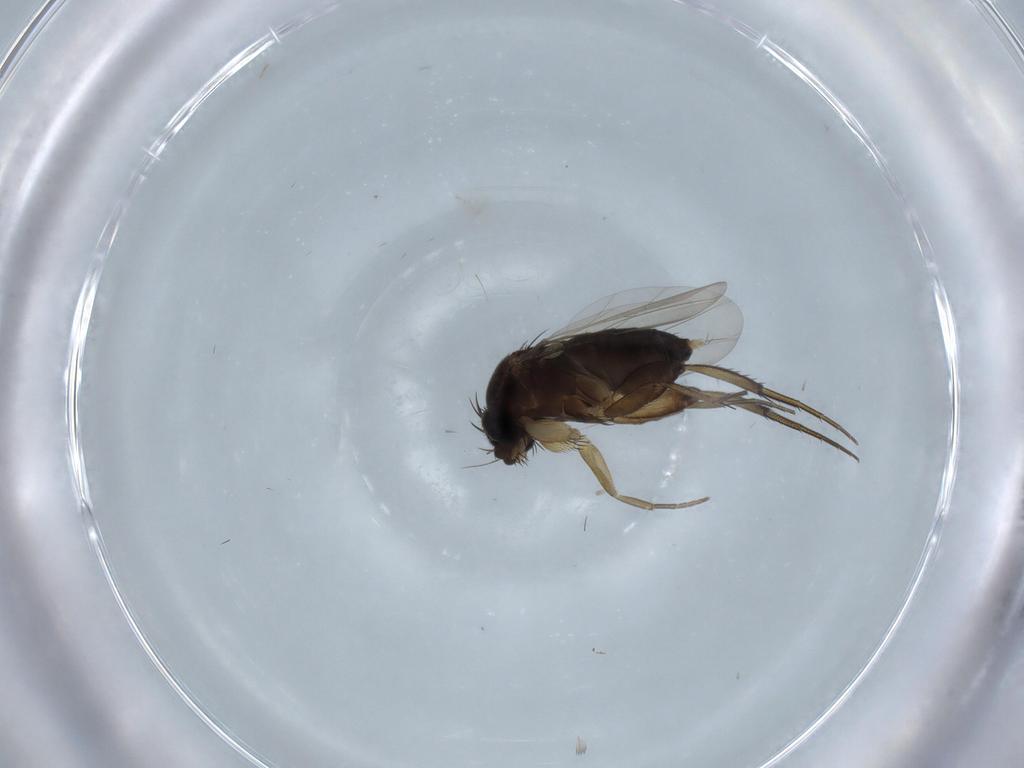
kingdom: Animalia
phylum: Arthropoda
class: Insecta
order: Diptera
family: Phoridae
